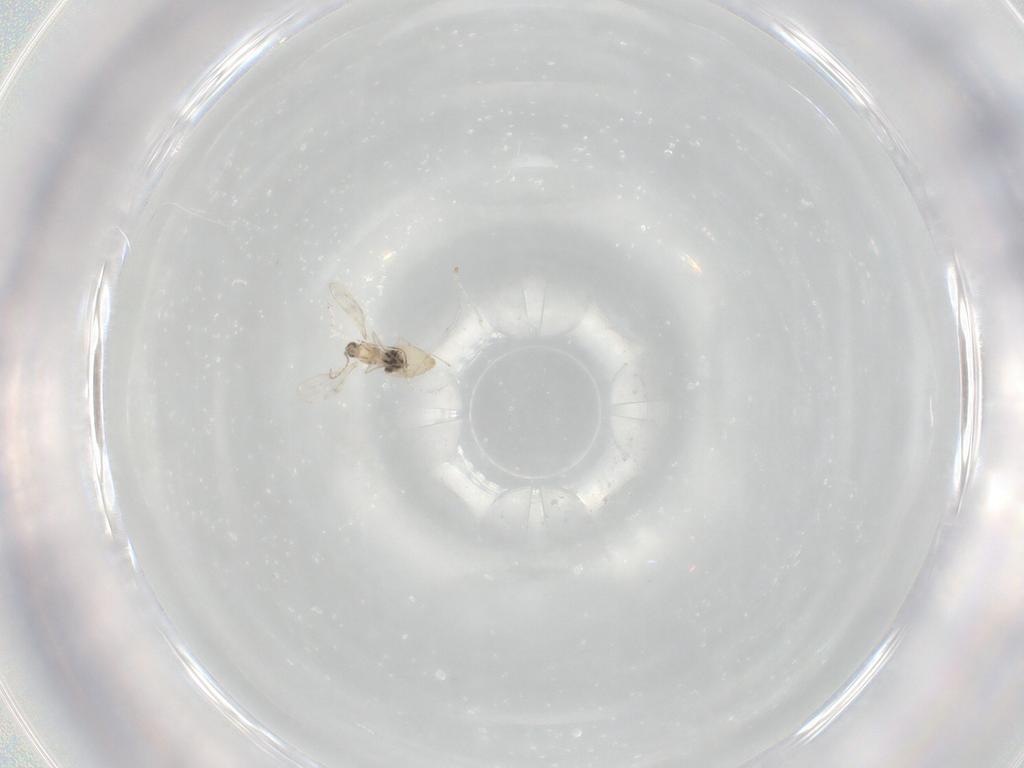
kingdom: Animalia
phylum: Arthropoda
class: Insecta
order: Diptera
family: Cecidomyiidae
